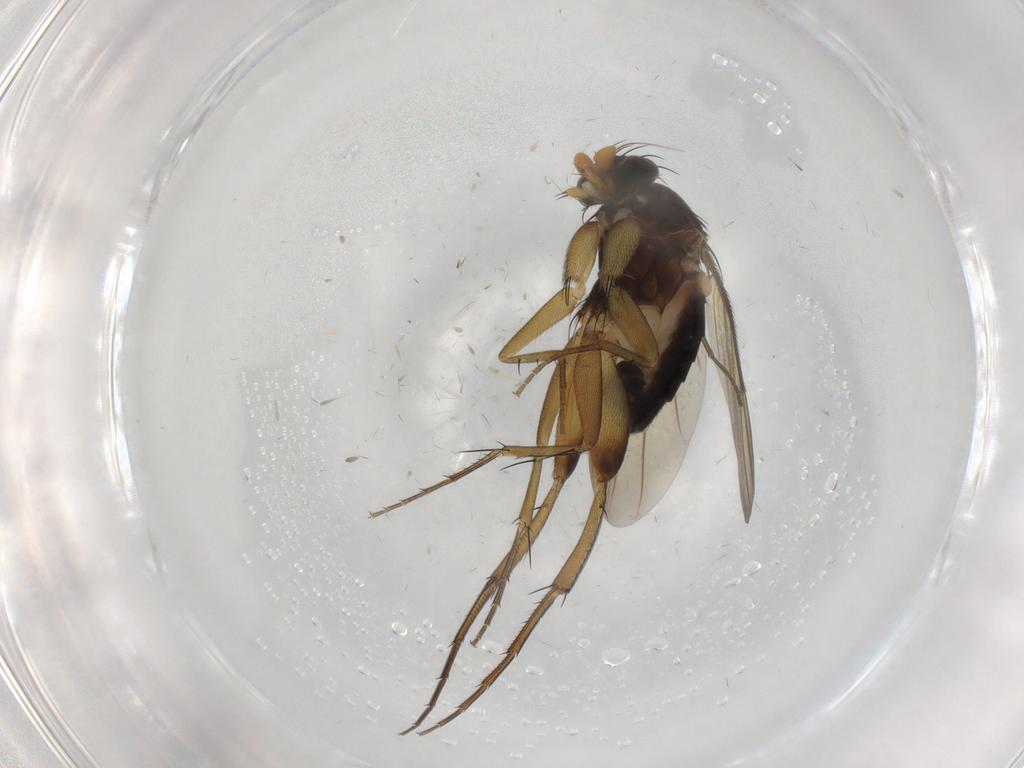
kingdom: Animalia
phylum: Arthropoda
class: Insecta
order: Diptera
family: Phoridae
